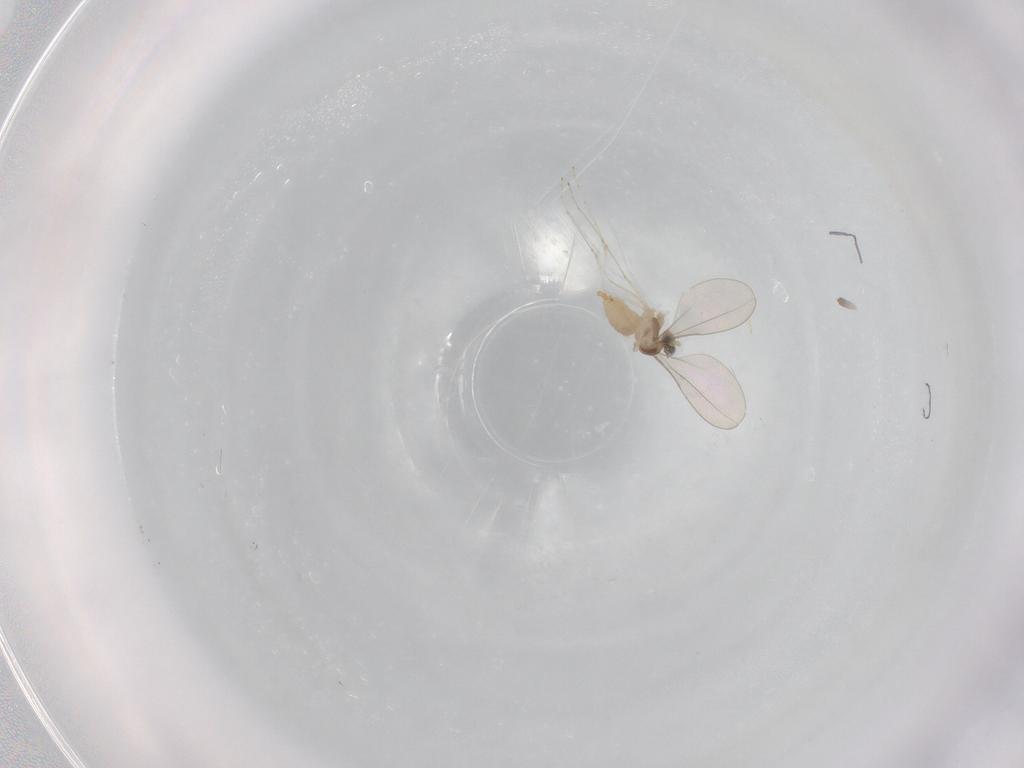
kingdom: Animalia
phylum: Arthropoda
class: Insecta
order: Diptera
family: Cecidomyiidae
